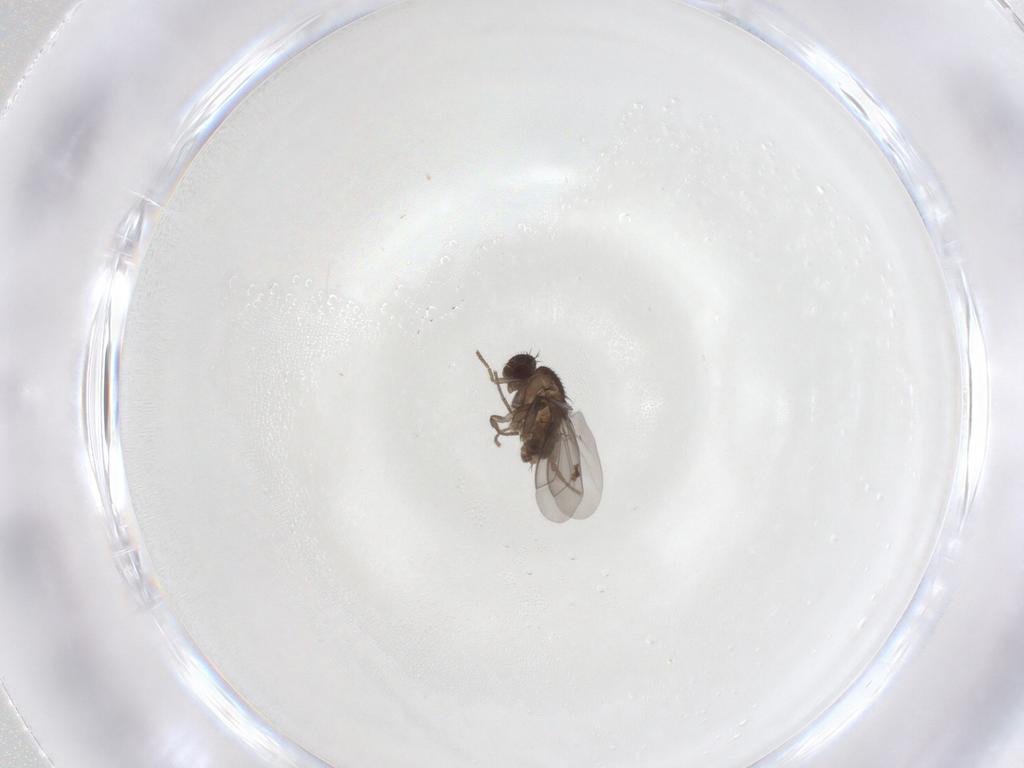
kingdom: Animalia
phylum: Arthropoda
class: Insecta
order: Diptera
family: Sphaeroceridae
